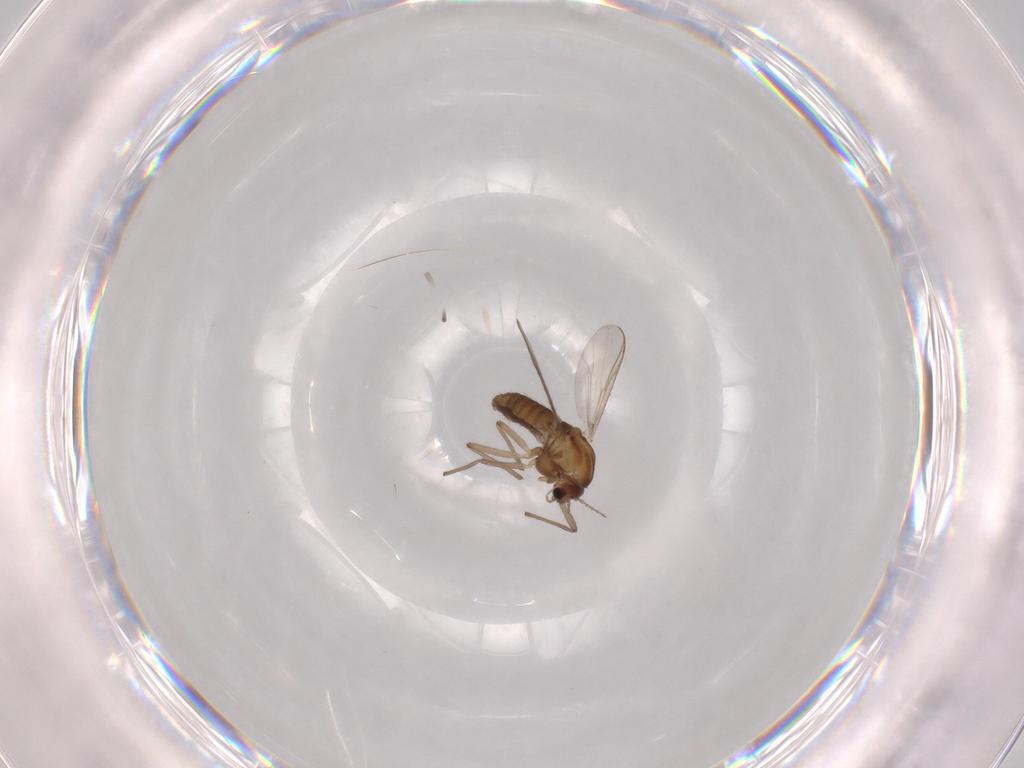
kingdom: Animalia
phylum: Arthropoda
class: Insecta
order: Diptera
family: Chironomidae
